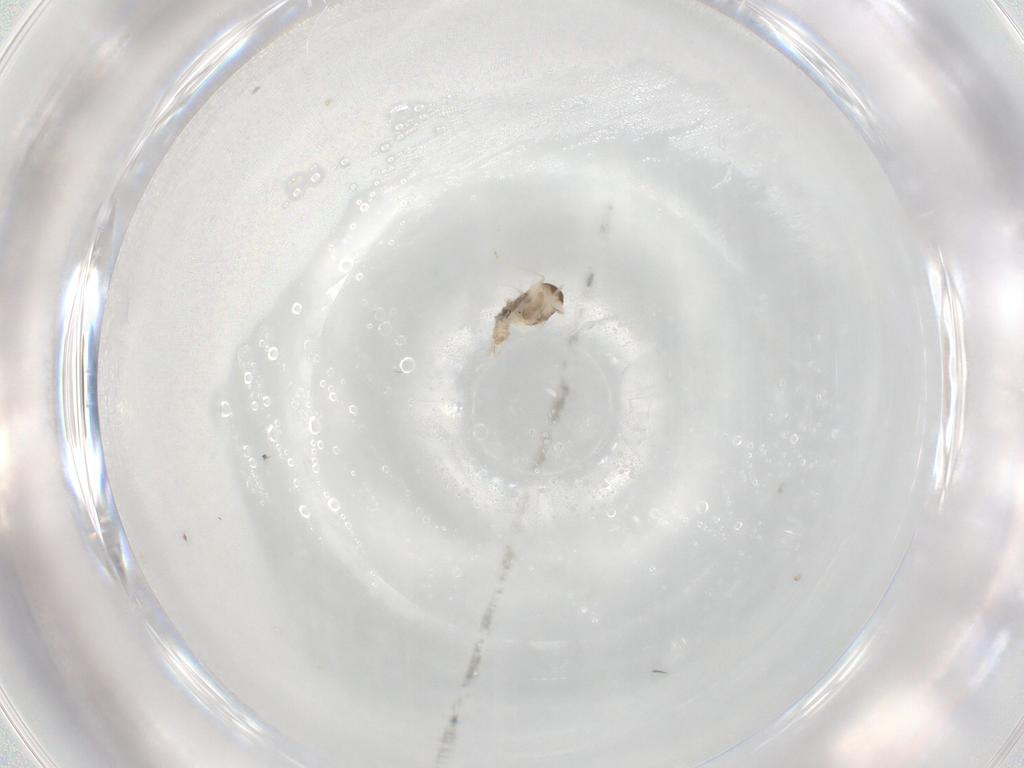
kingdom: Animalia
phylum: Arthropoda
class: Insecta
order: Diptera
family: Cecidomyiidae
